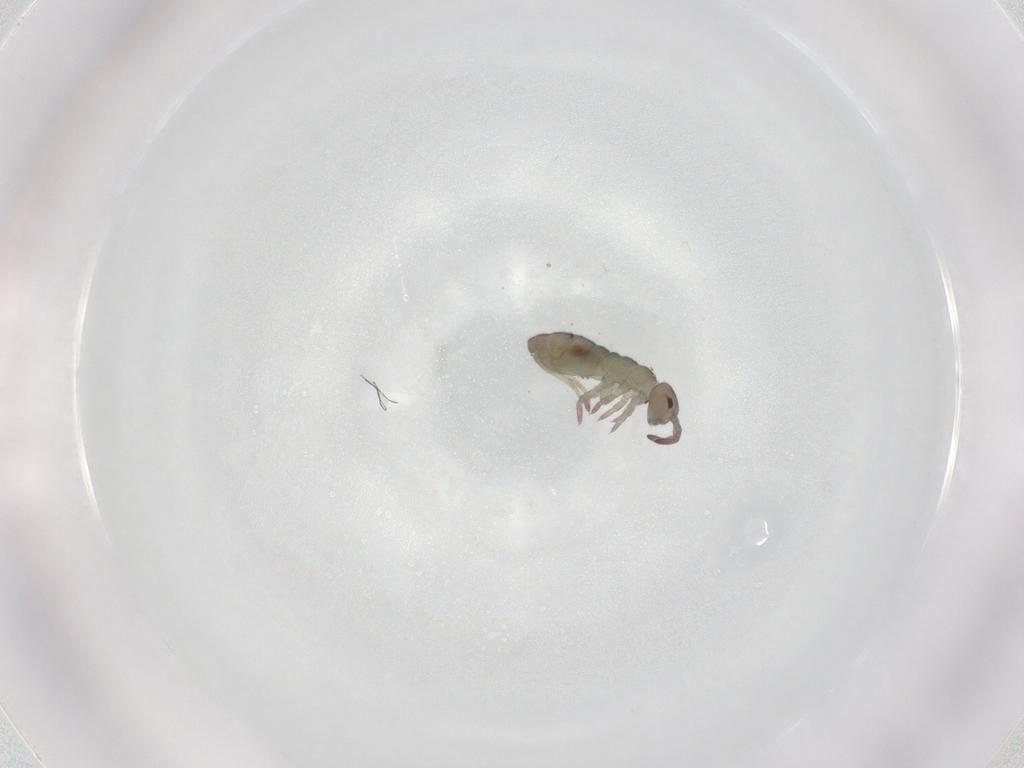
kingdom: Animalia
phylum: Arthropoda
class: Collembola
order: Entomobryomorpha
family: Isotomidae
